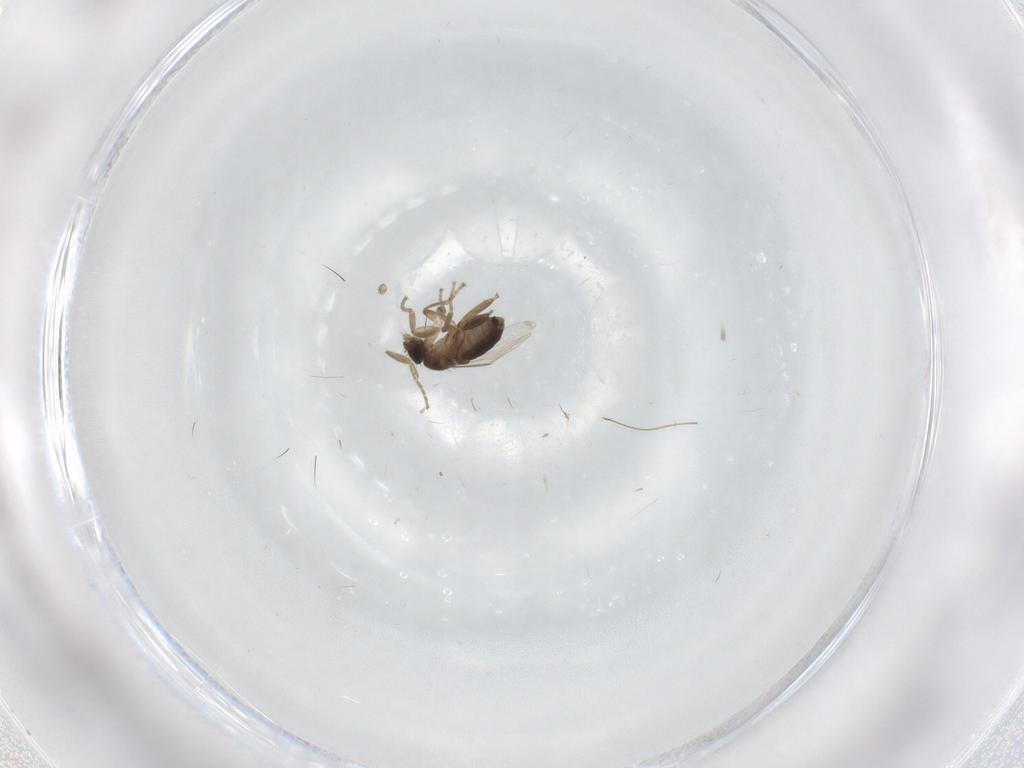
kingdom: Animalia
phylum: Arthropoda
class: Insecta
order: Diptera
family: Phoridae
